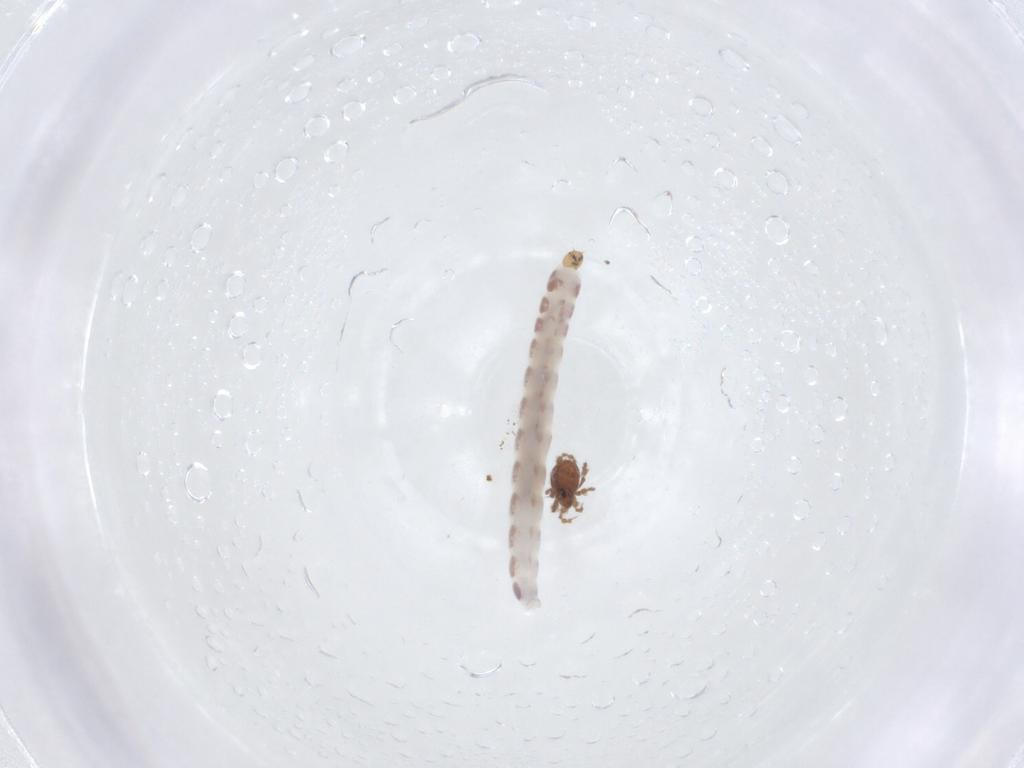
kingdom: Animalia
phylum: Arthropoda
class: Insecta
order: Diptera
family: Chironomidae
